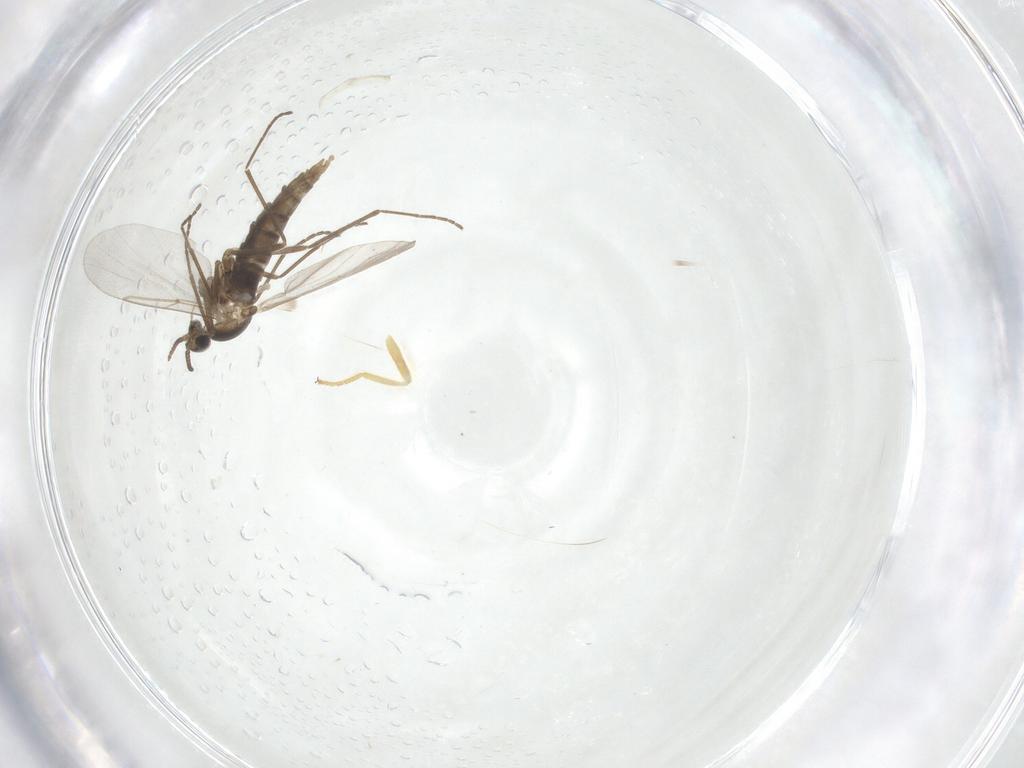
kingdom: Animalia
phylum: Arthropoda
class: Insecta
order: Diptera
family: Cecidomyiidae
